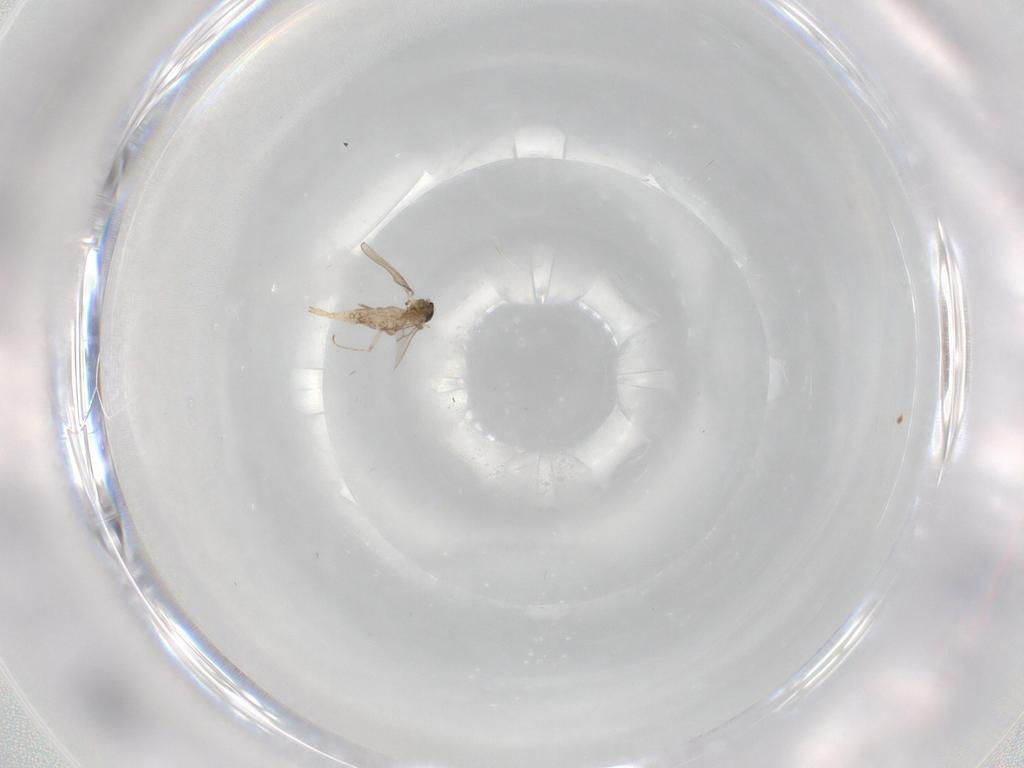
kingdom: Animalia
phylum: Arthropoda
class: Insecta
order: Diptera
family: Cecidomyiidae
